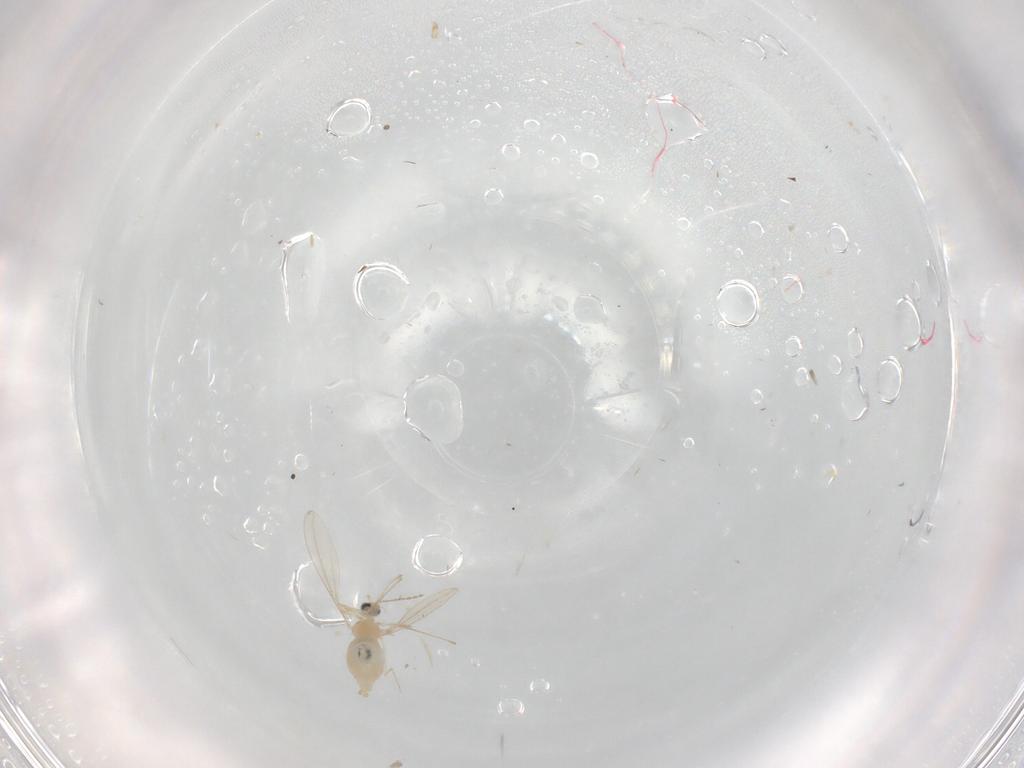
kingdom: Animalia
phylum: Arthropoda
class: Insecta
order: Diptera
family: Cecidomyiidae
